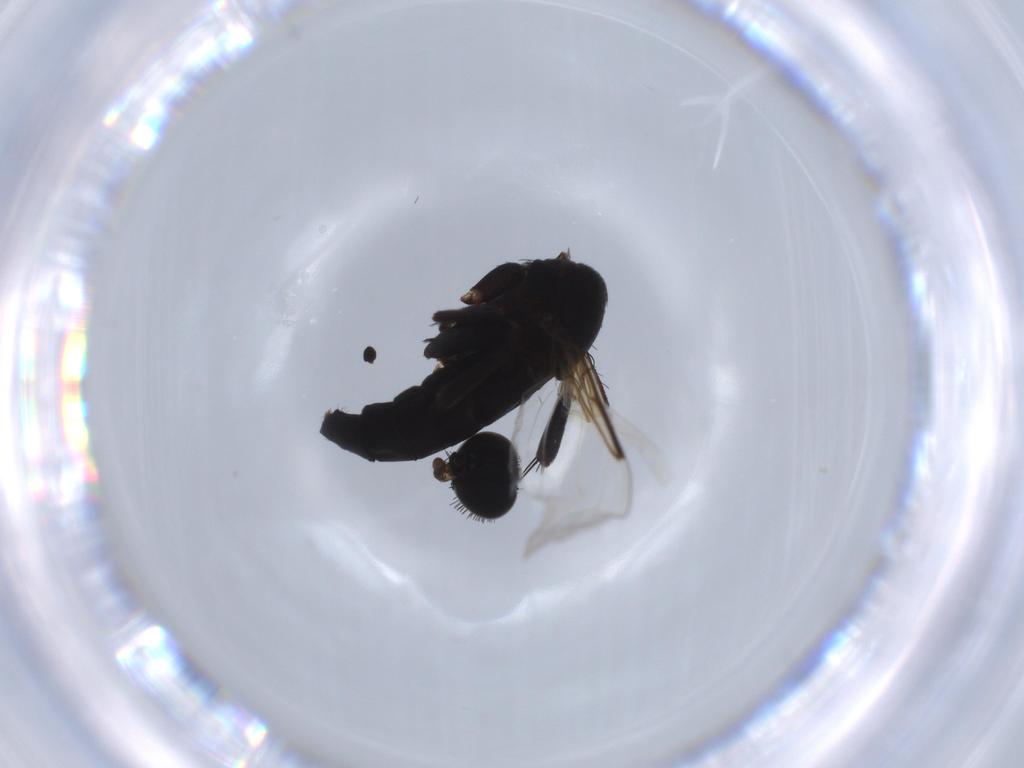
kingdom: Animalia
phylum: Arthropoda
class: Insecta
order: Diptera
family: Phoridae
